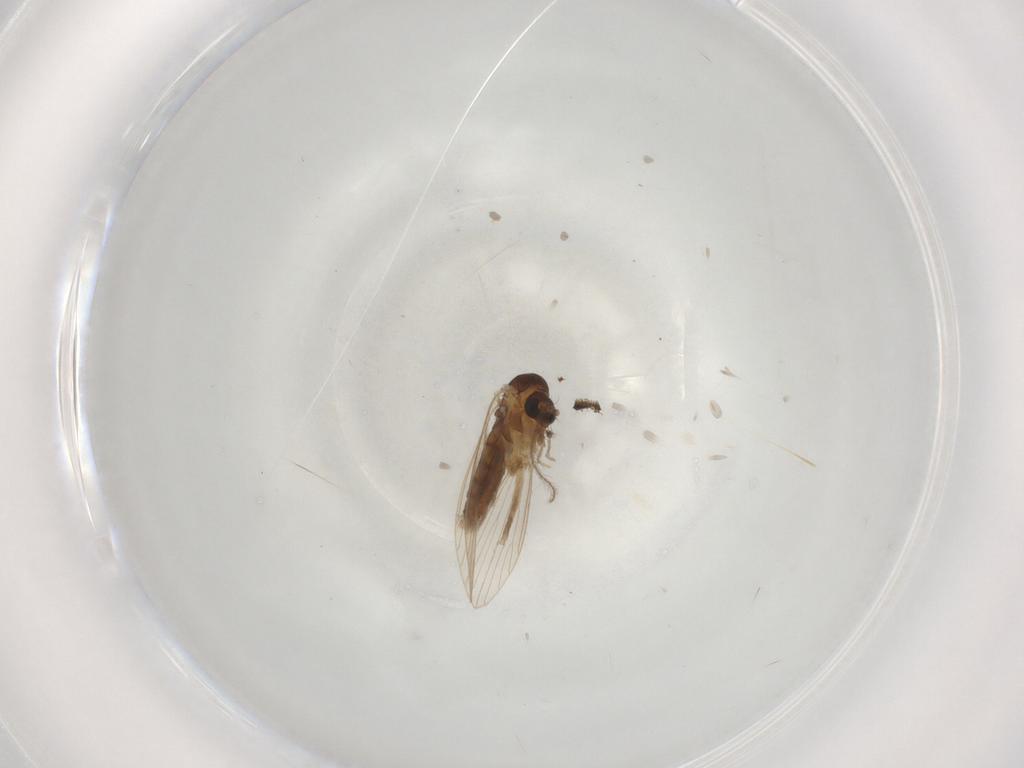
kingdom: Animalia
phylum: Arthropoda
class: Insecta
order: Diptera
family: Psychodidae
